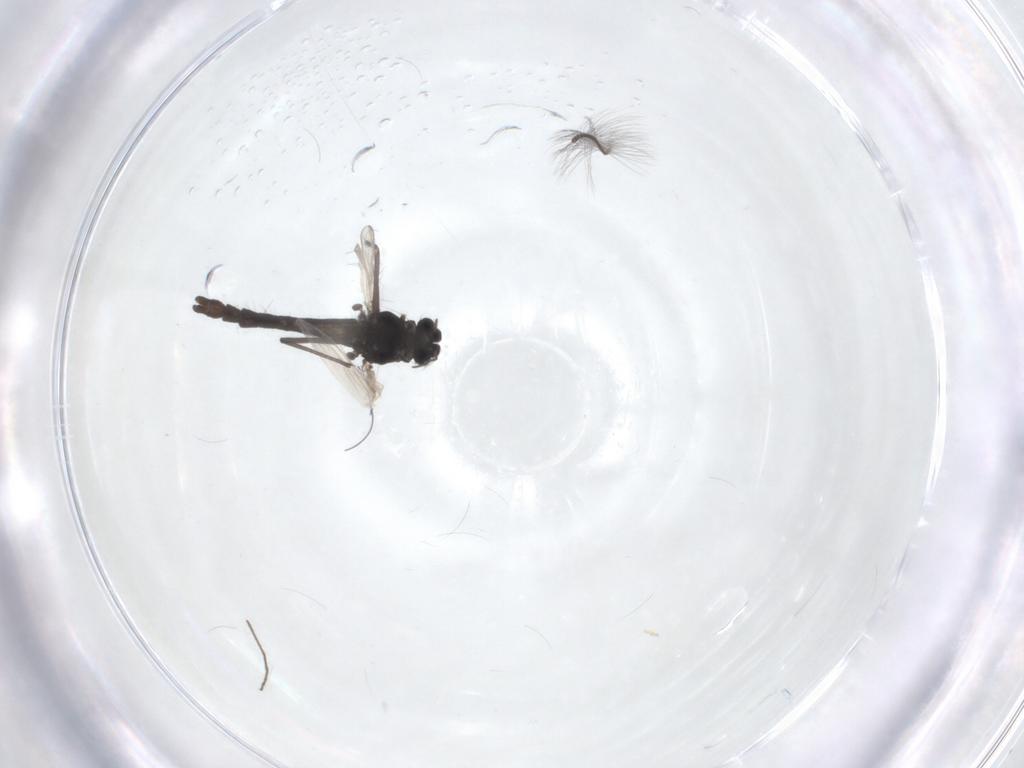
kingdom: Animalia
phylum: Arthropoda
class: Insecta
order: Diptera
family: Chironomidae
